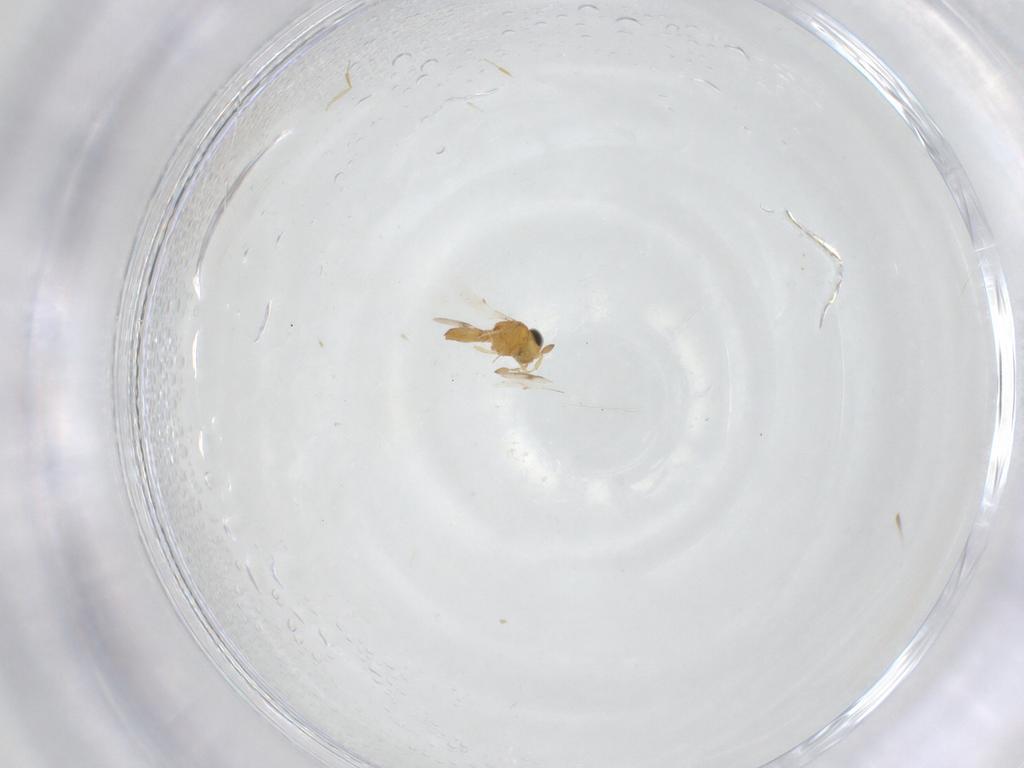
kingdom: Animalia
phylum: Arthropoda
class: Insecta
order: Hymenoptera
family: Scelionidae
